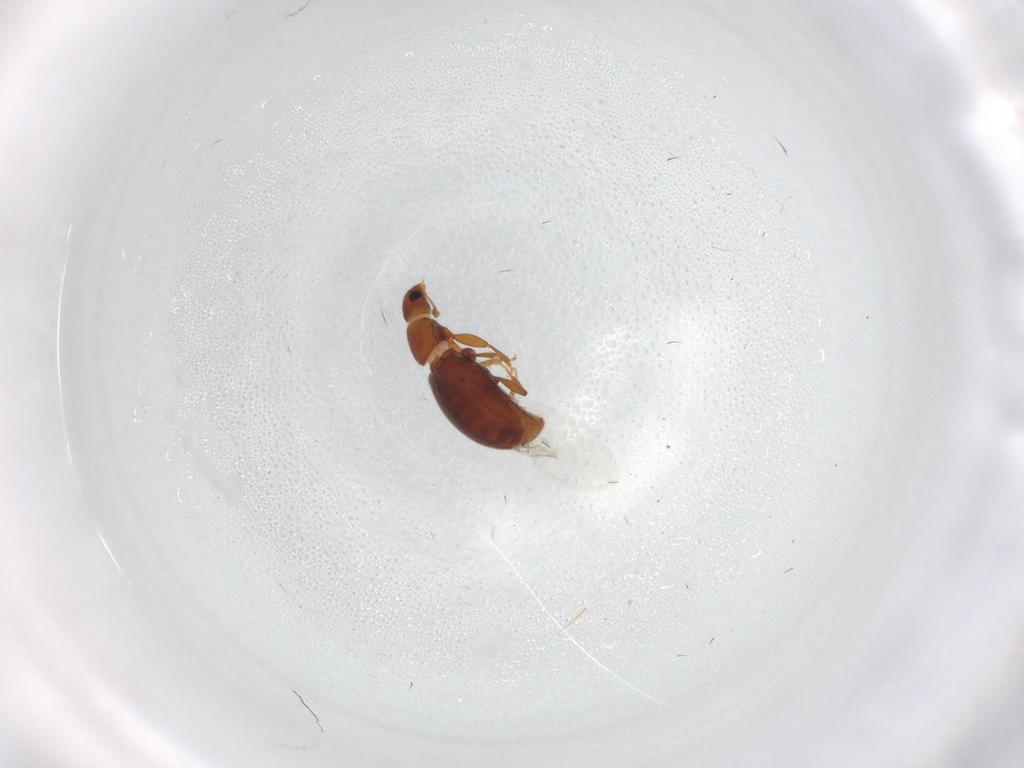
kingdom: Animalia
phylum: Arthropoda
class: Insecta
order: Coleoptera
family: Latridiidae
